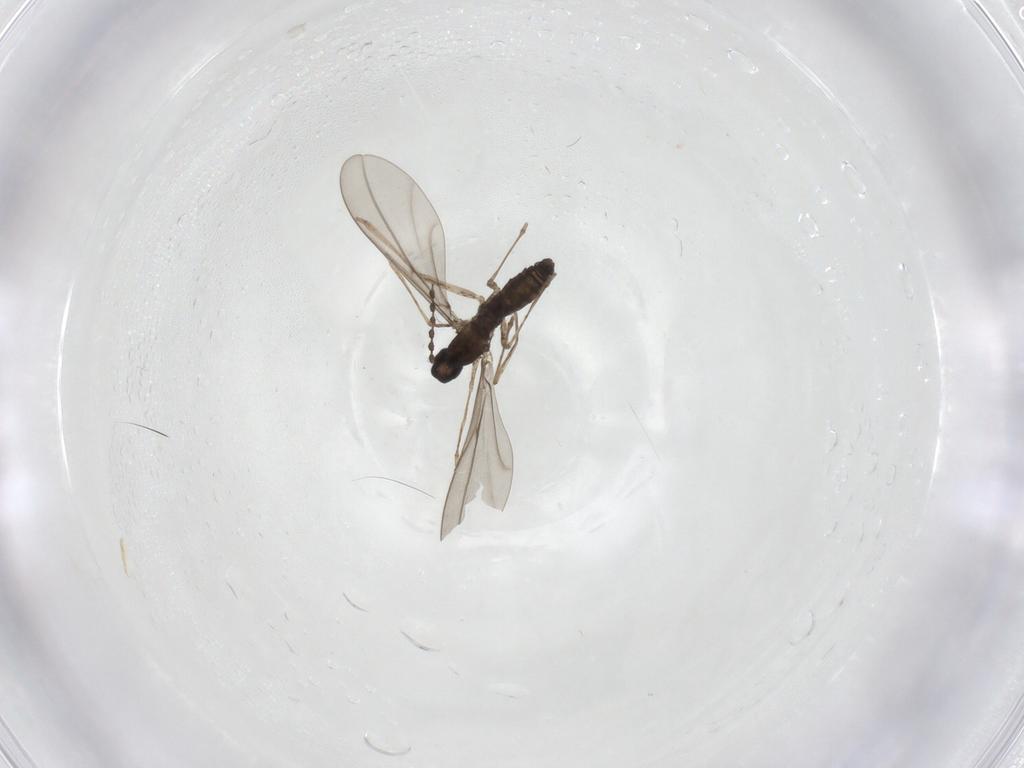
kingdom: Animalia
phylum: Arthropoda
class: Insecta
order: Diptera
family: Cecidomyiidae
